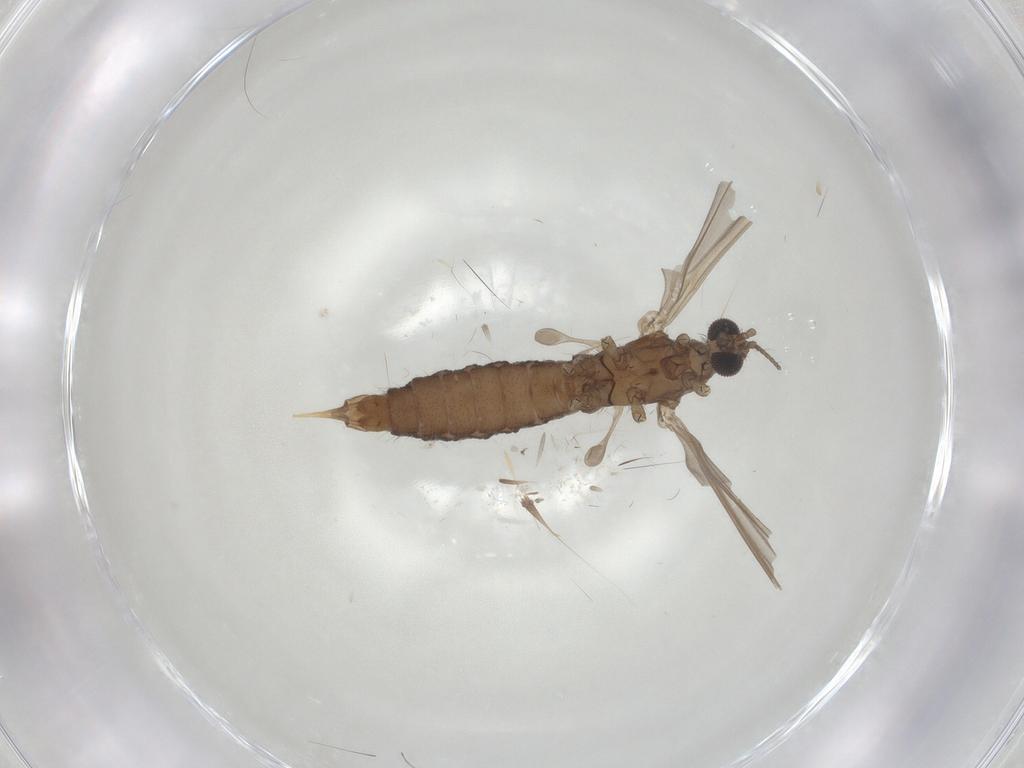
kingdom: Animalia
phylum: Arthropoda
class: Insecta
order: Diptera
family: Limoniidae
